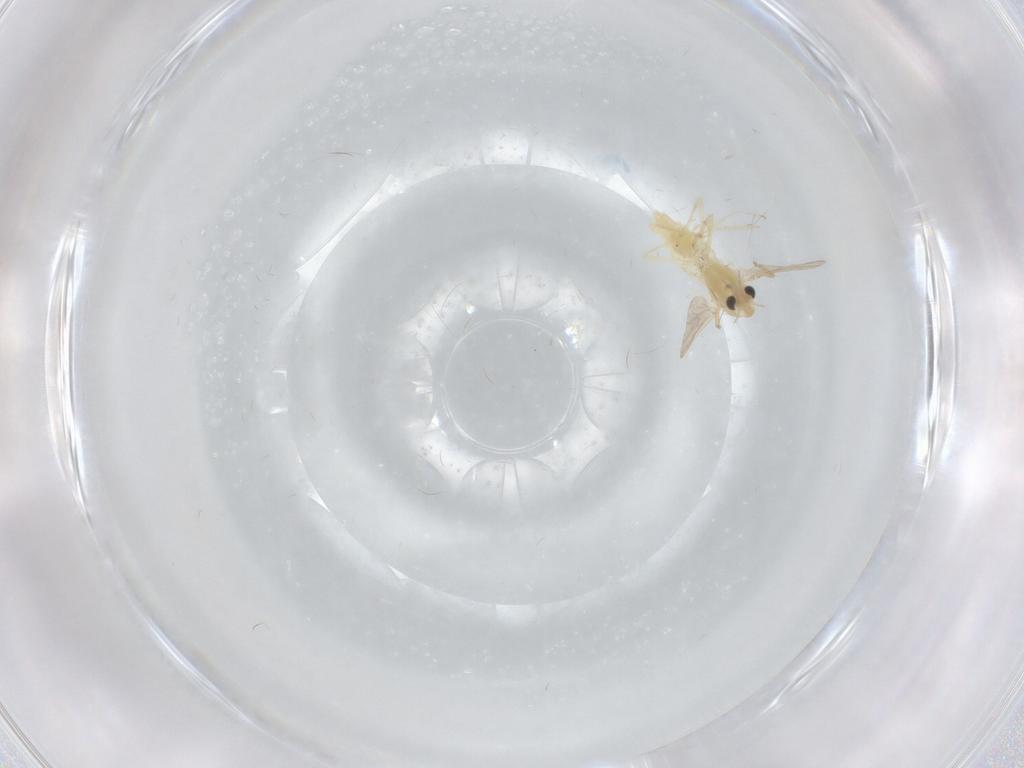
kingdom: Animalia
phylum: Arthropoda
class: Insecta
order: Diptera
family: Chironomidae
